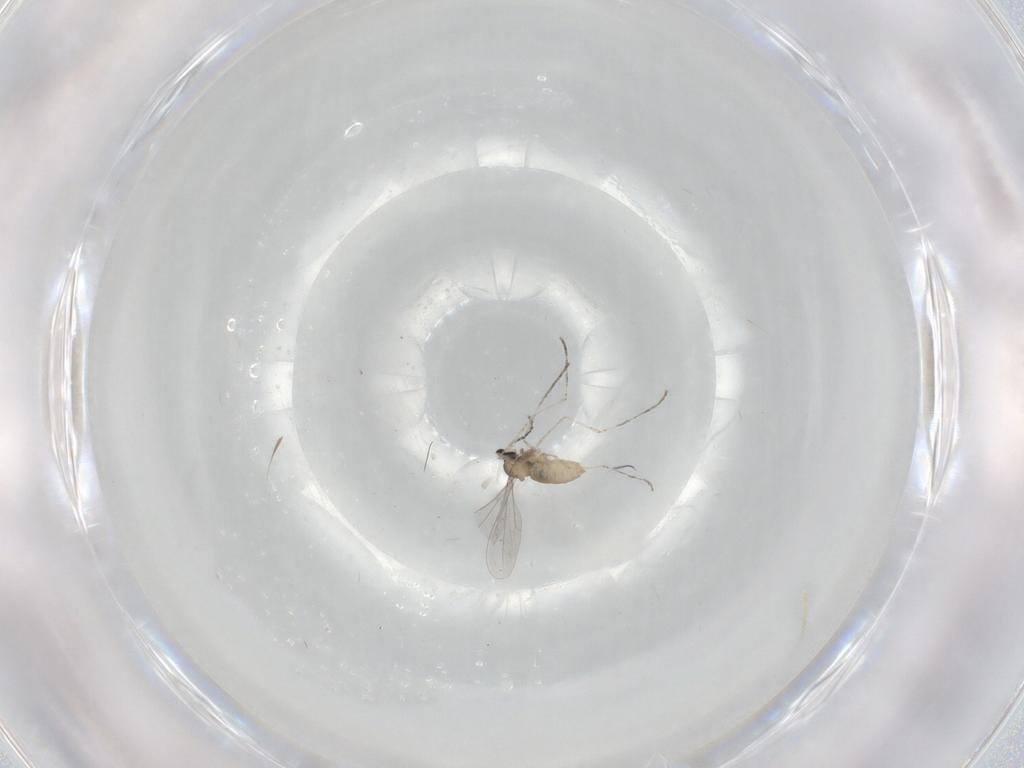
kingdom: Animalia
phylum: Arthropoda
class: Insecta
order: Diptera
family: Cecidomyiidae
